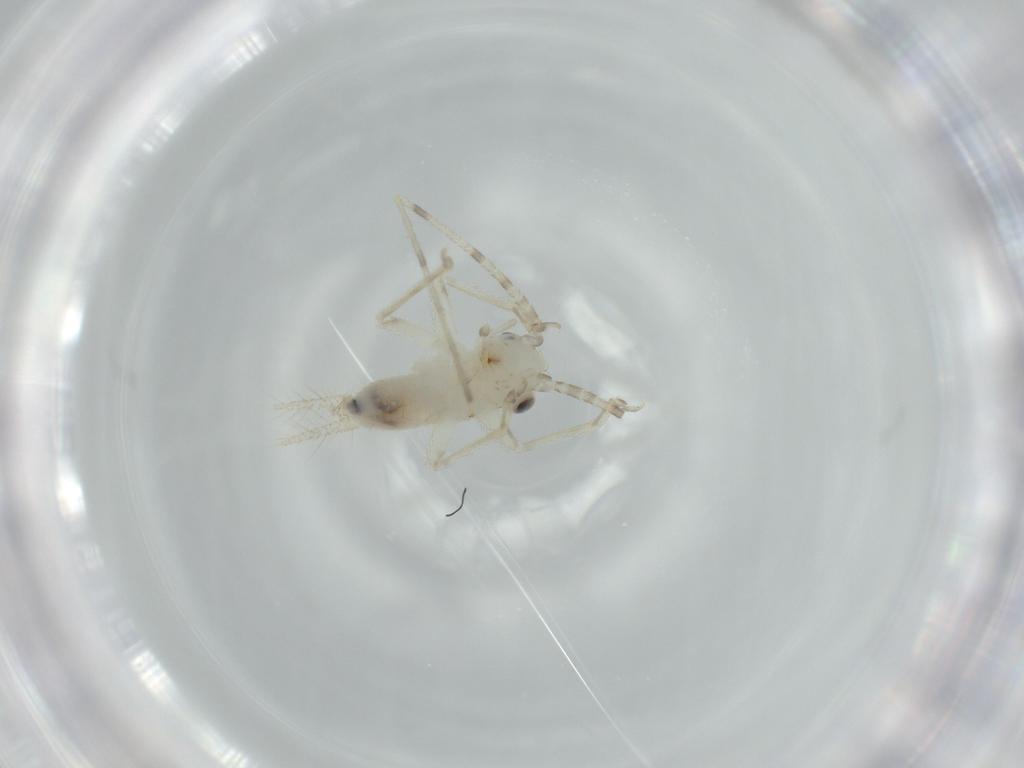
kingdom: Animalia
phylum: Arthropoda
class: Insecta
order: Orthoptera
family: Trigonidiidae
